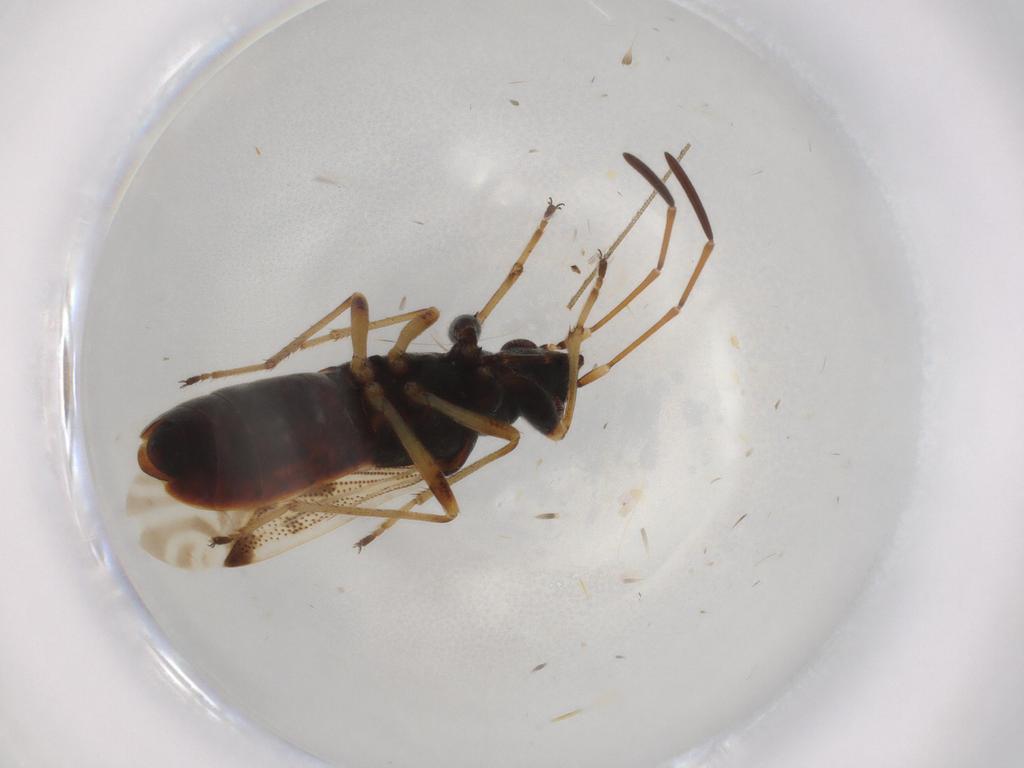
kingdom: Animalia
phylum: Arthropoda
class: Insecta
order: Hemiptera
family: Rhyparochromidae
